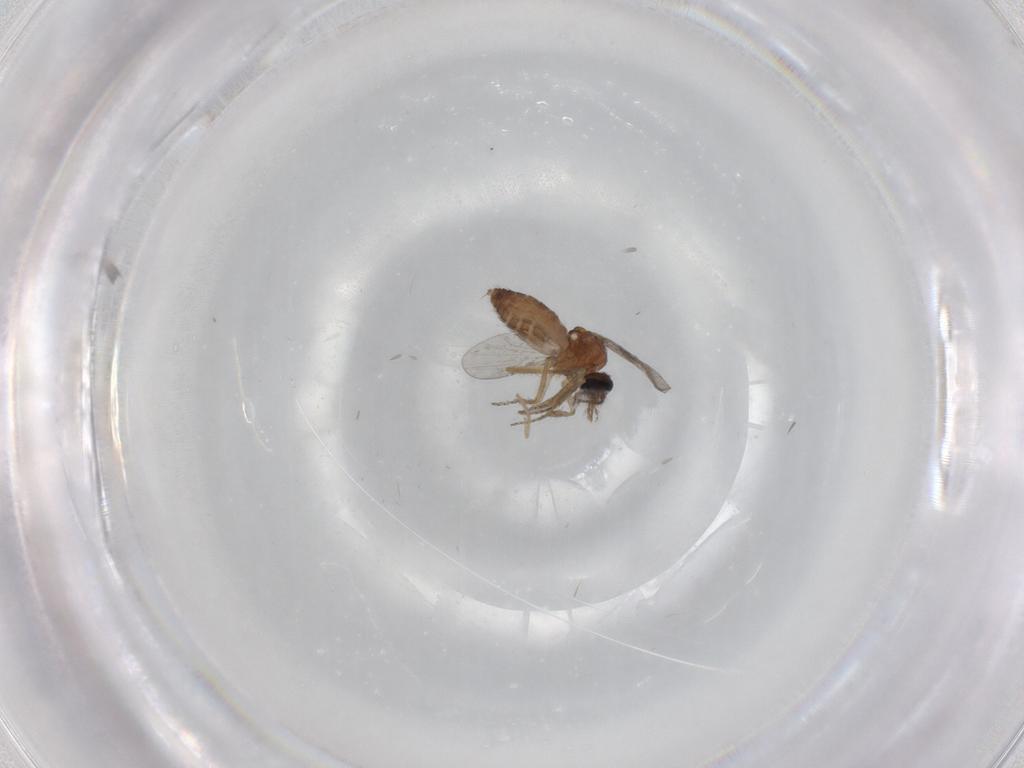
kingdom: Animalia
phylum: Arthropoda
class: Insecta
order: Diptera
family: Ceratopogonidae
